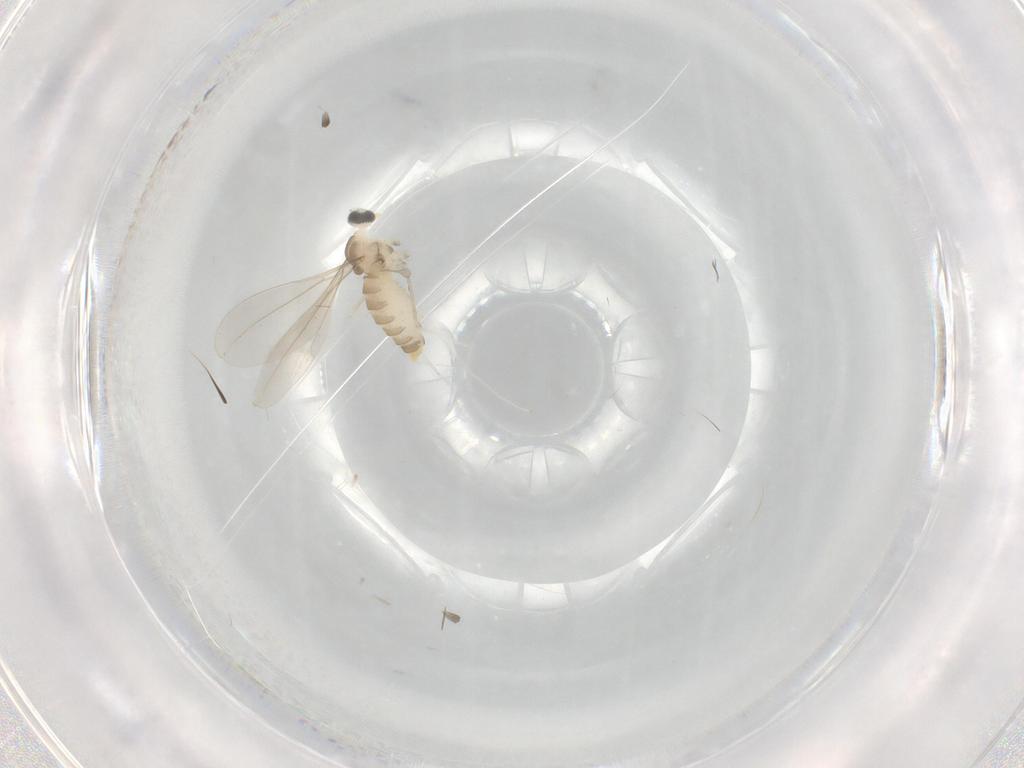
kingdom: Animalia
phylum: Arthropoda
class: Insecta
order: Diptera
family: Cecidomyiidae
